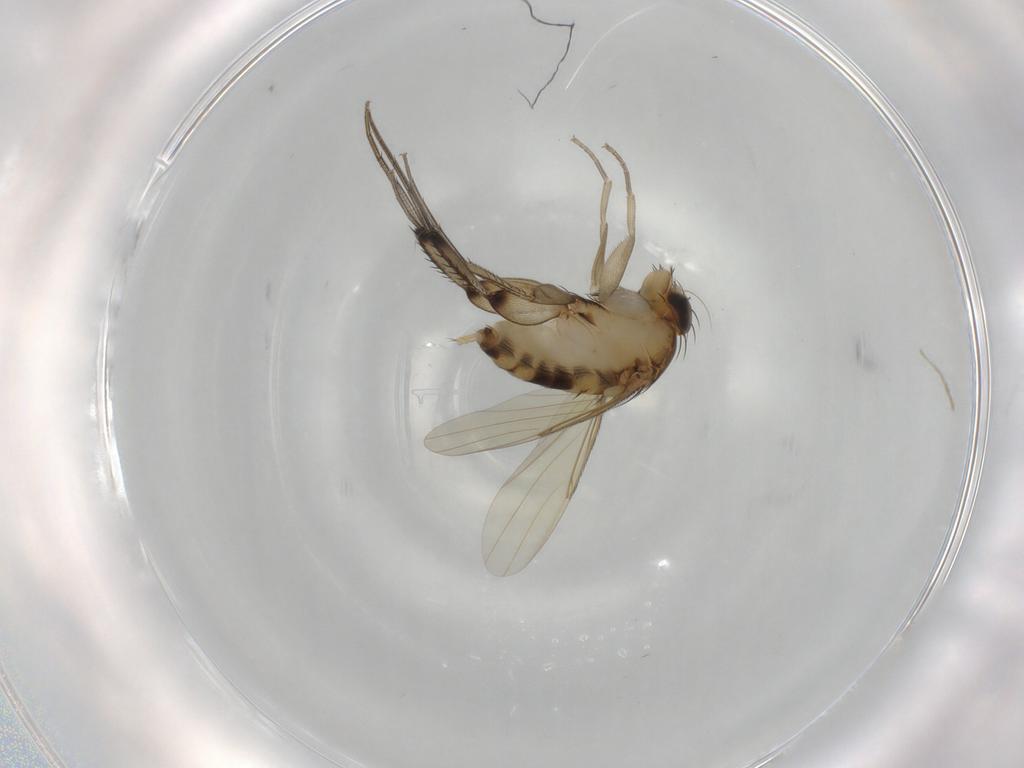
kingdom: Animalia
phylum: Arthropoda
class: Insecta
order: Diptera
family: Phoridae
